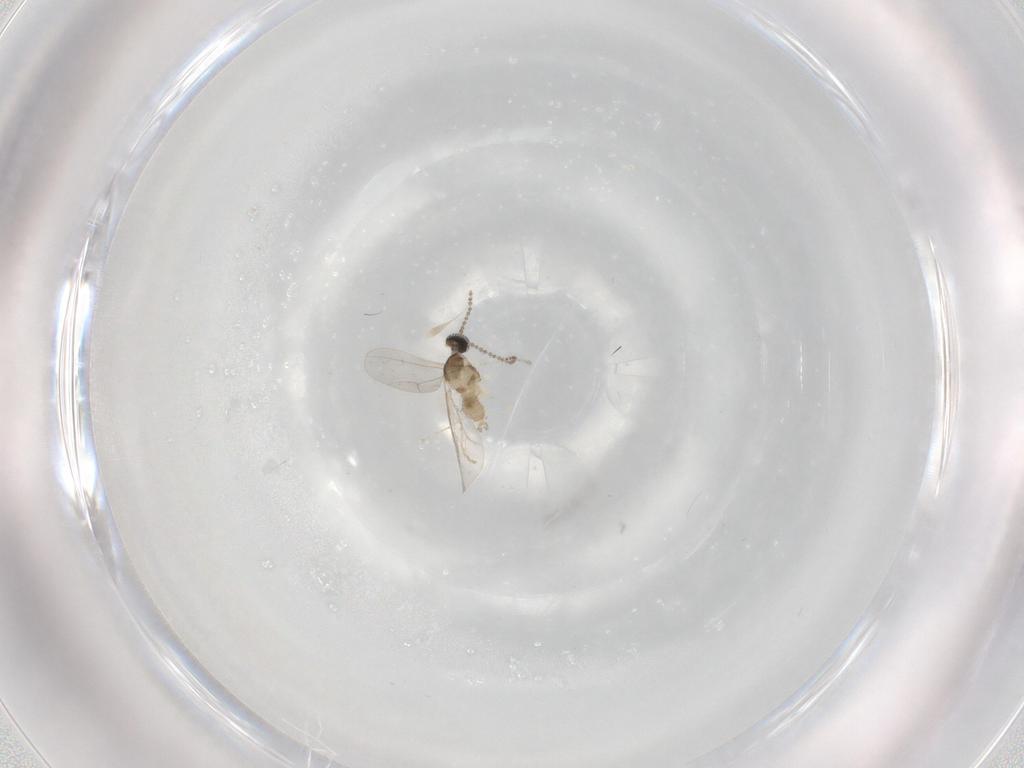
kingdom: Animalia
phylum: Arthropoda
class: Insecta
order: Diptera
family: Cecidomyiidae
